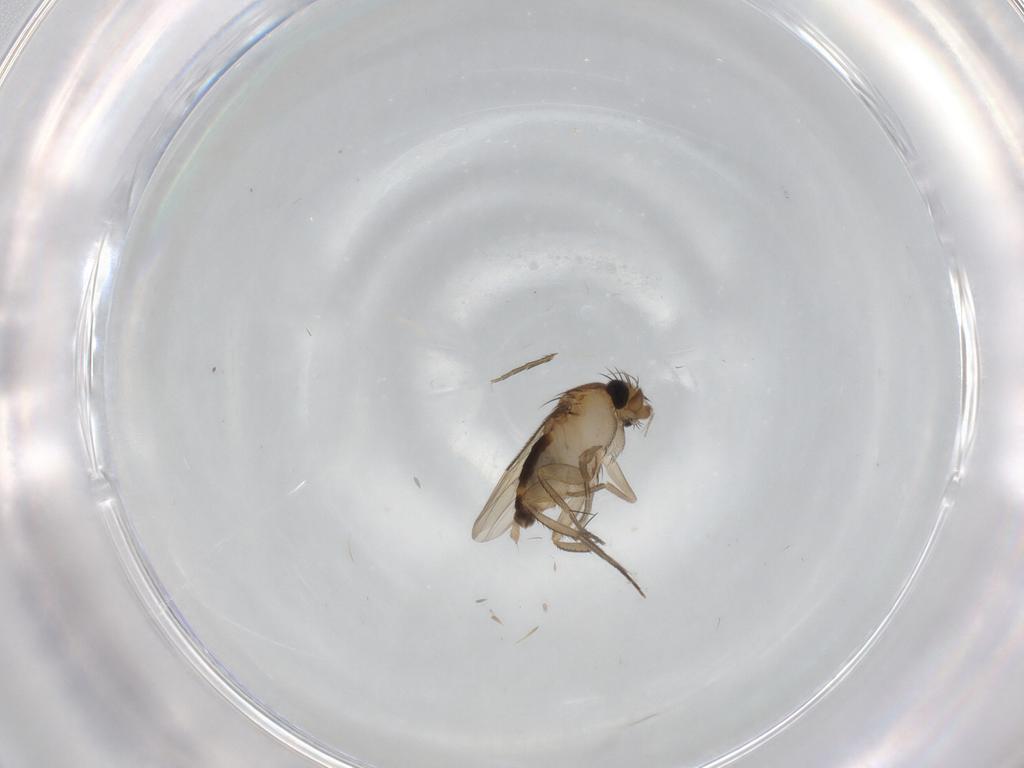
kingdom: Animalia
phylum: Arthropoda
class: Insecta
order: Diptera
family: Phoridae
